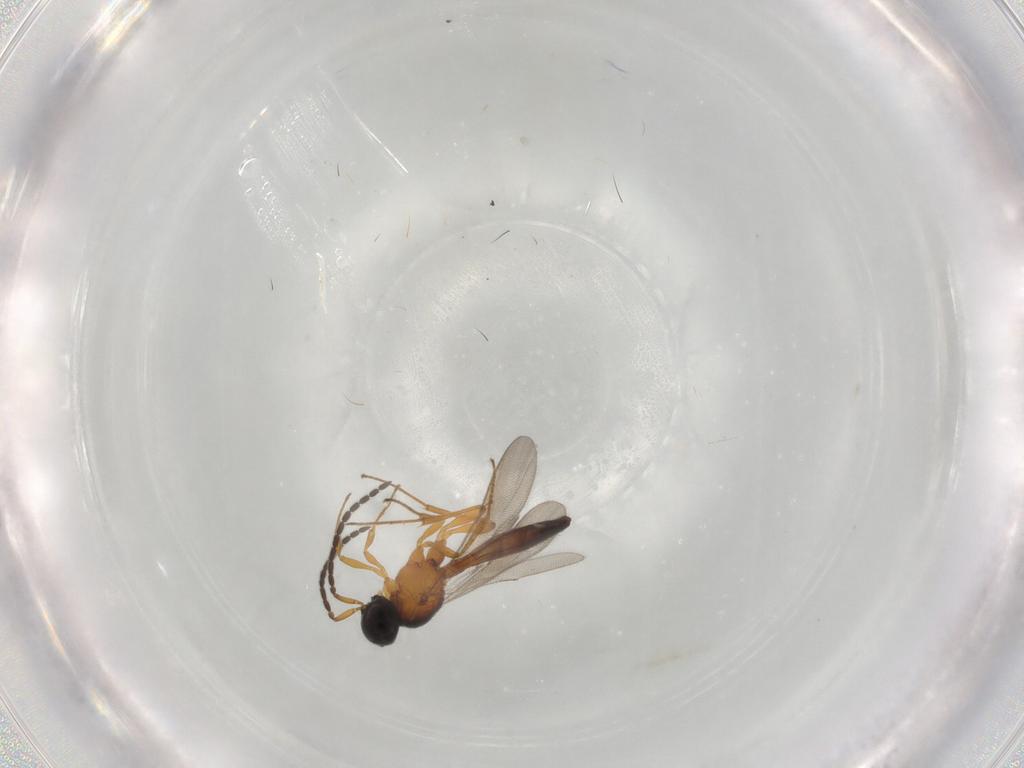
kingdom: Animalia
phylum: Arthropoda
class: Insecta
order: Hymenoptera
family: Scelionidae
